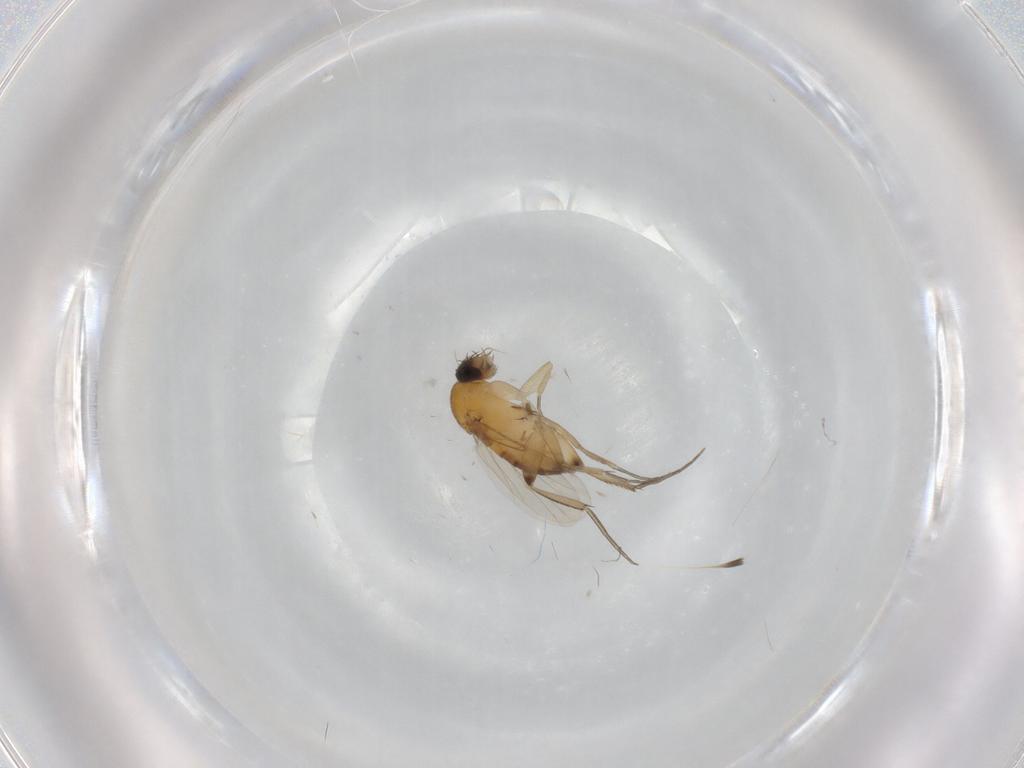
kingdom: Animalia
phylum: Arthropoda
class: Insecta
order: Diptera
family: Phoridae
